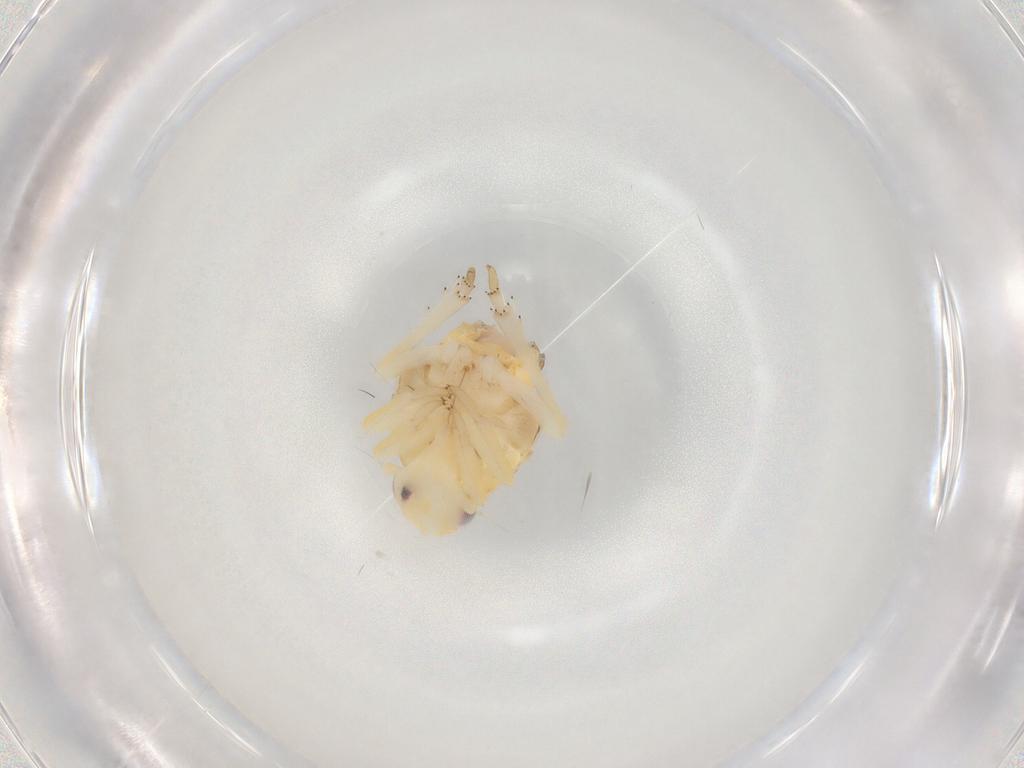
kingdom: Animalia
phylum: Arthropoda
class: Insecta
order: Hemiptera
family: Ricaniidae
